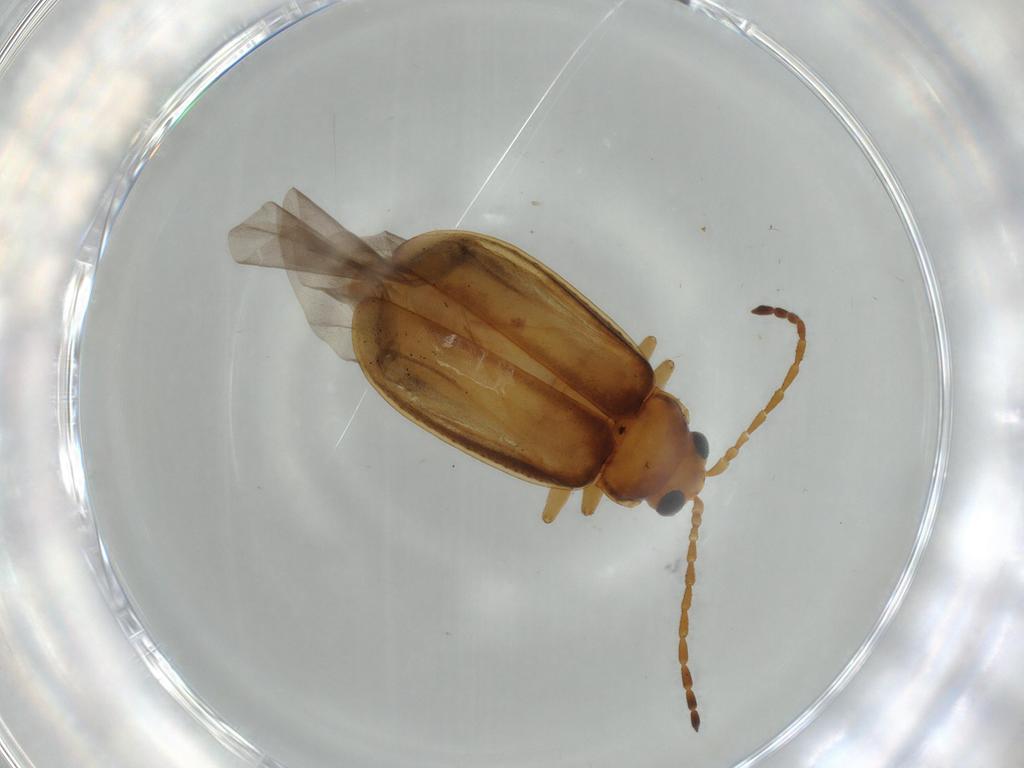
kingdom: Animalia
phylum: Arthropoda
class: Insecta
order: Coleoptera
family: Chrysomelidae
